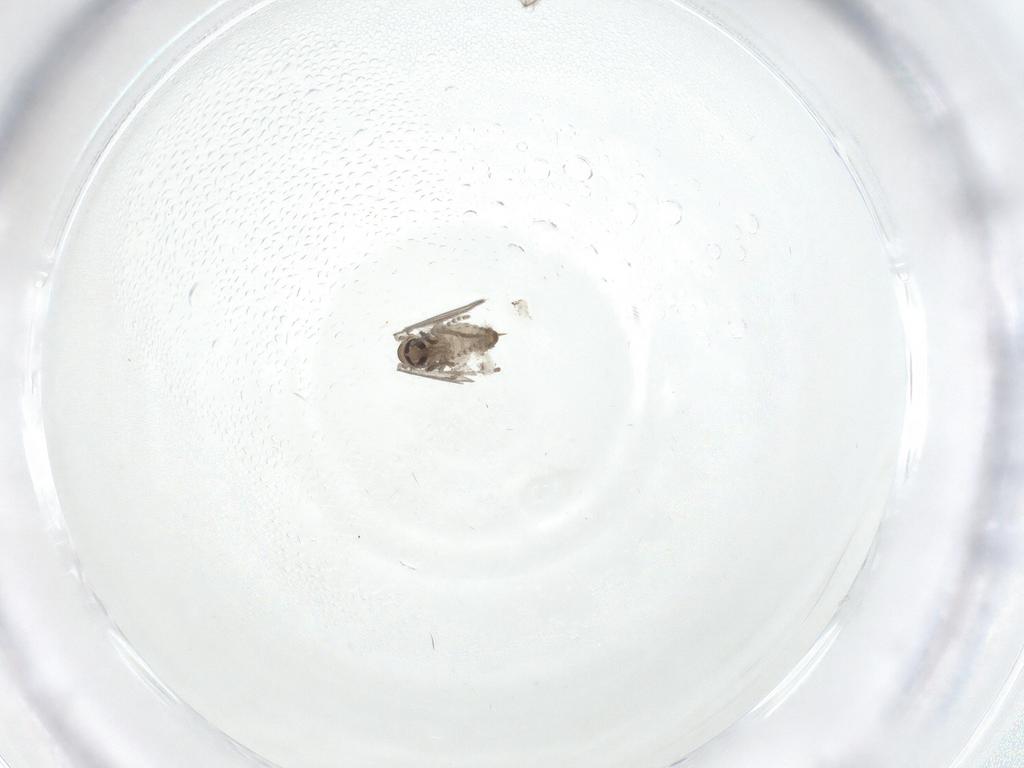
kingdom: Animalia
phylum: Arthropoda
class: Insecta
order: Diptera
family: Psychodidae
